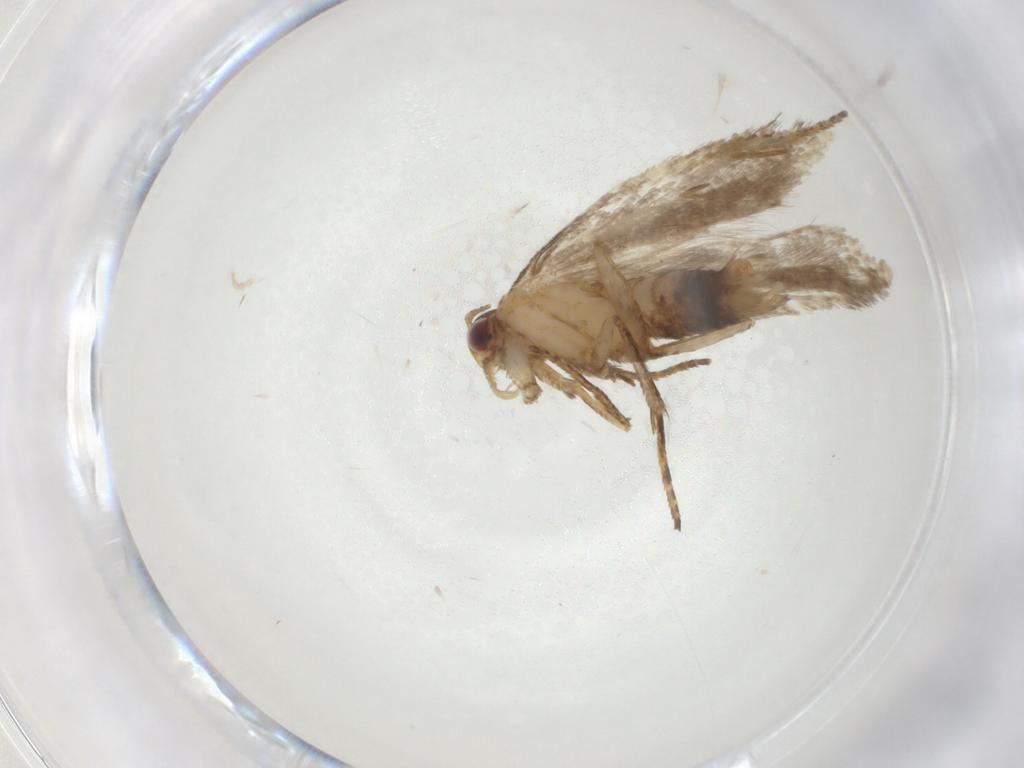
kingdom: Animalia
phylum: Arthropoda
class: Insecta
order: Lepidoptera
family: Gelechiidae
